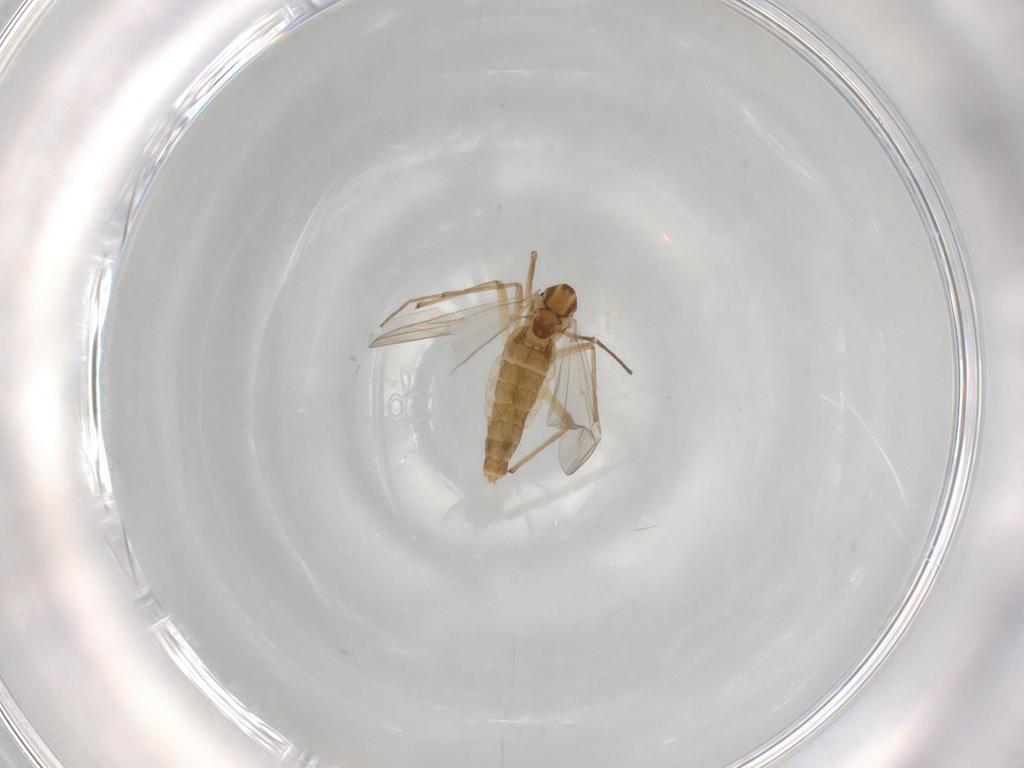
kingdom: Animalia
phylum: Arthropoda
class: Insecta
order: Diptera
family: Chironomidae
